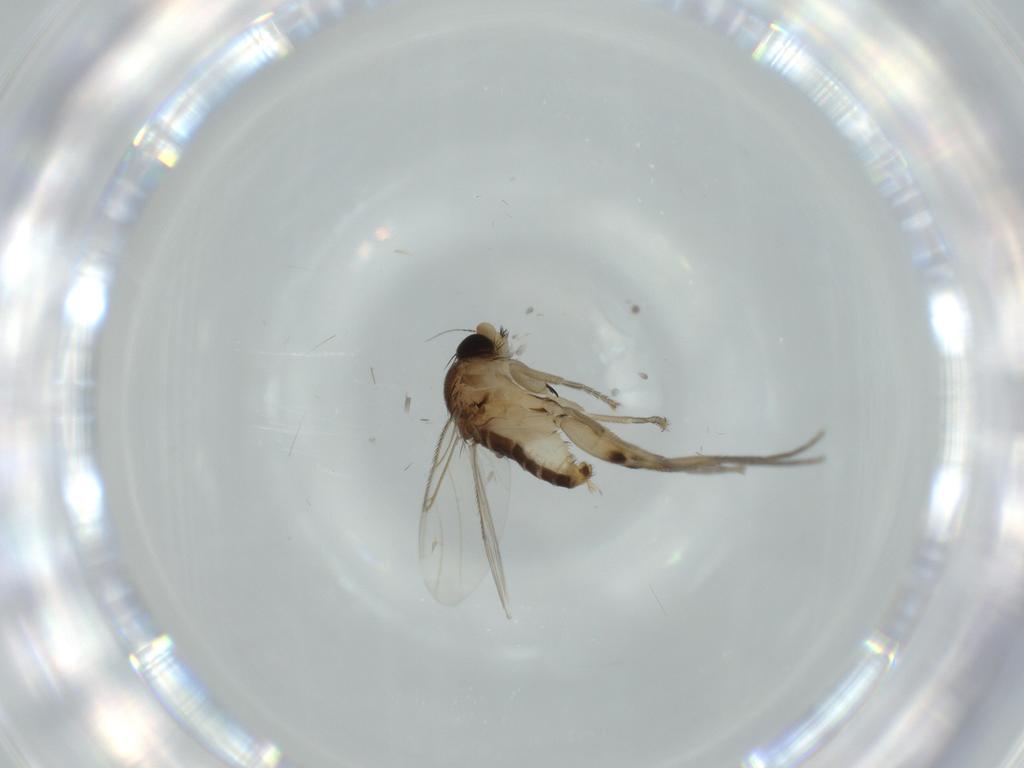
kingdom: Animalia
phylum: Arthropoda
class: Insecta
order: Diptera
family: Phoridae
